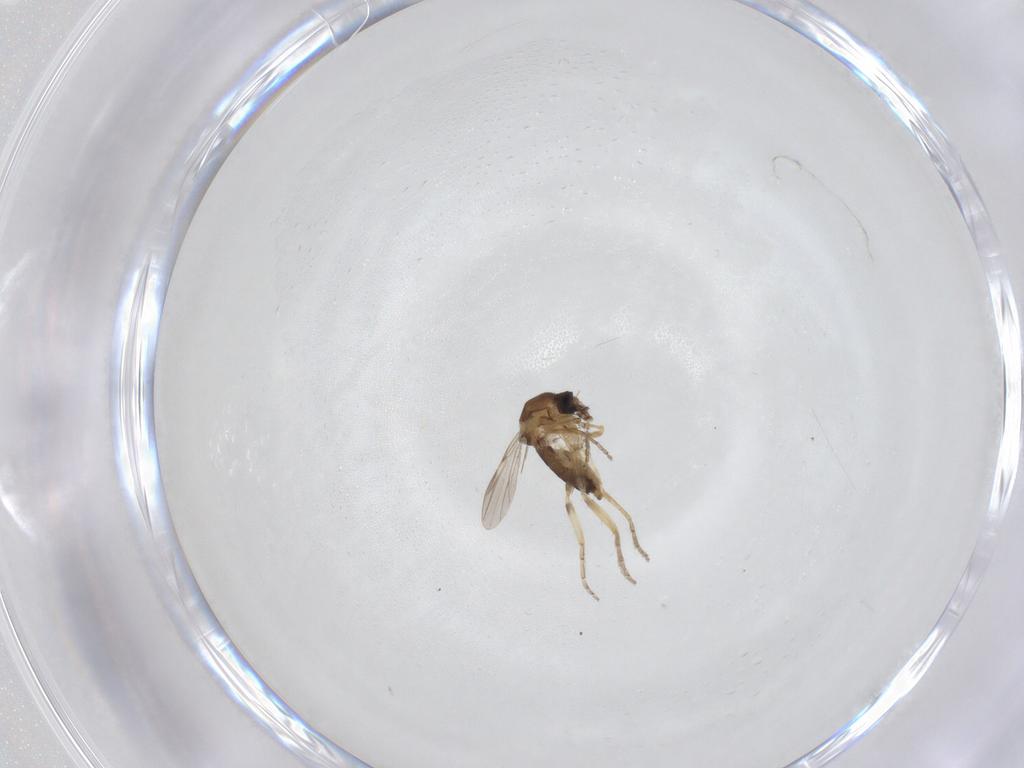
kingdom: Animalia
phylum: Arthropoda
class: Insecta
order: Diptera
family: Ceratopogonidae
